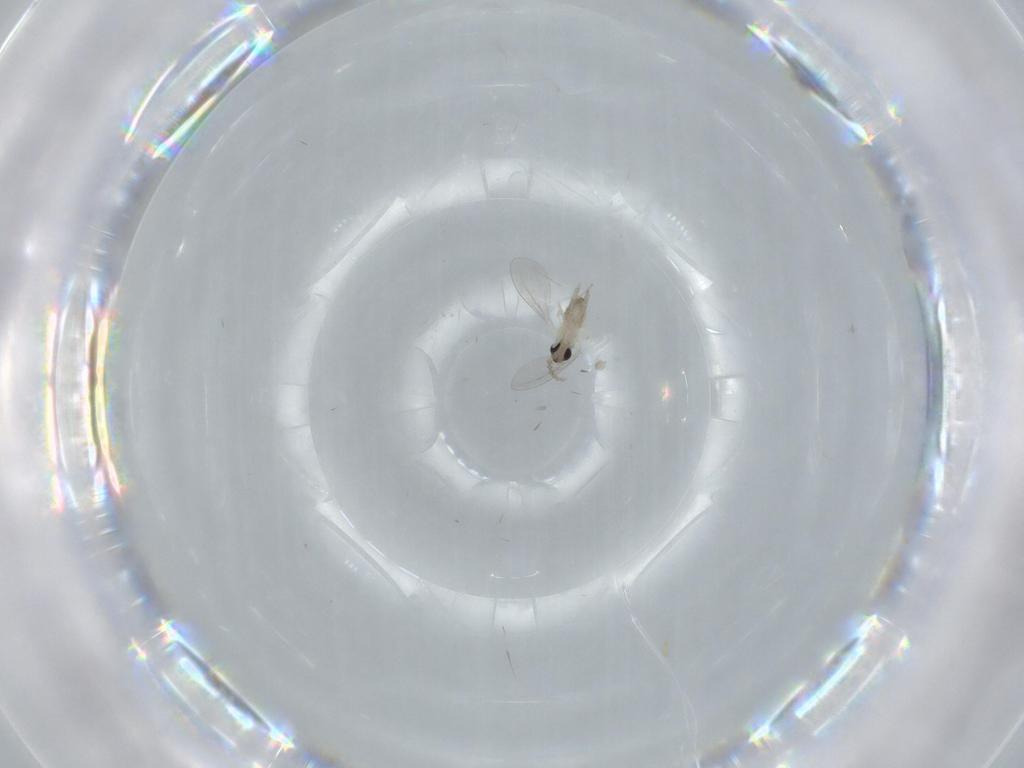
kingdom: Animalia
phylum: Arthropoda
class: Insecta
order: Diptera
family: Cecidomyiidae
